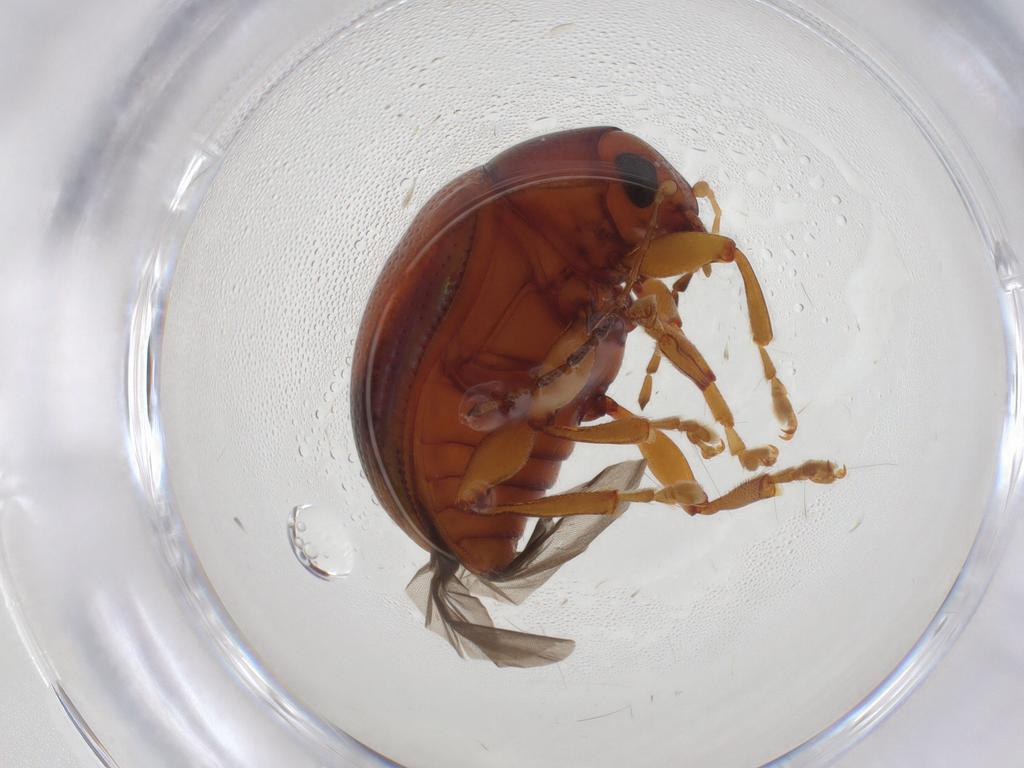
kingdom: Animalia
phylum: Arthropoda
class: Insecta
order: Coleoptera
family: Chrysomelidae
